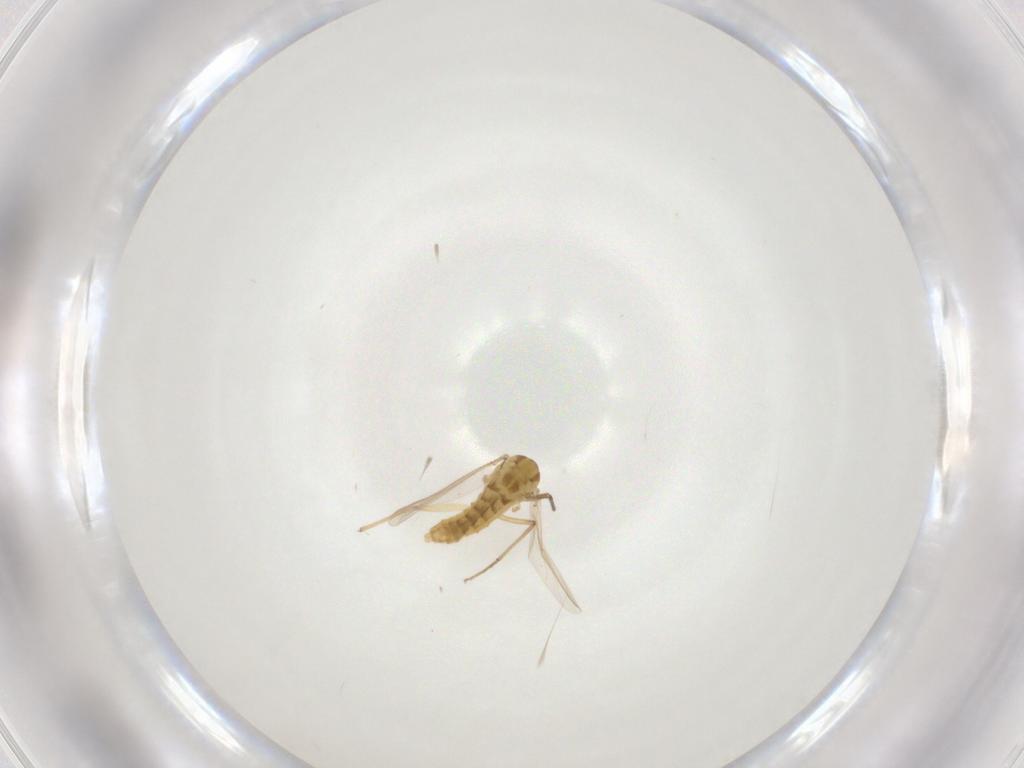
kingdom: Animalia
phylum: Arthropoda
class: Insecta
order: Diptera
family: Chironomidae
